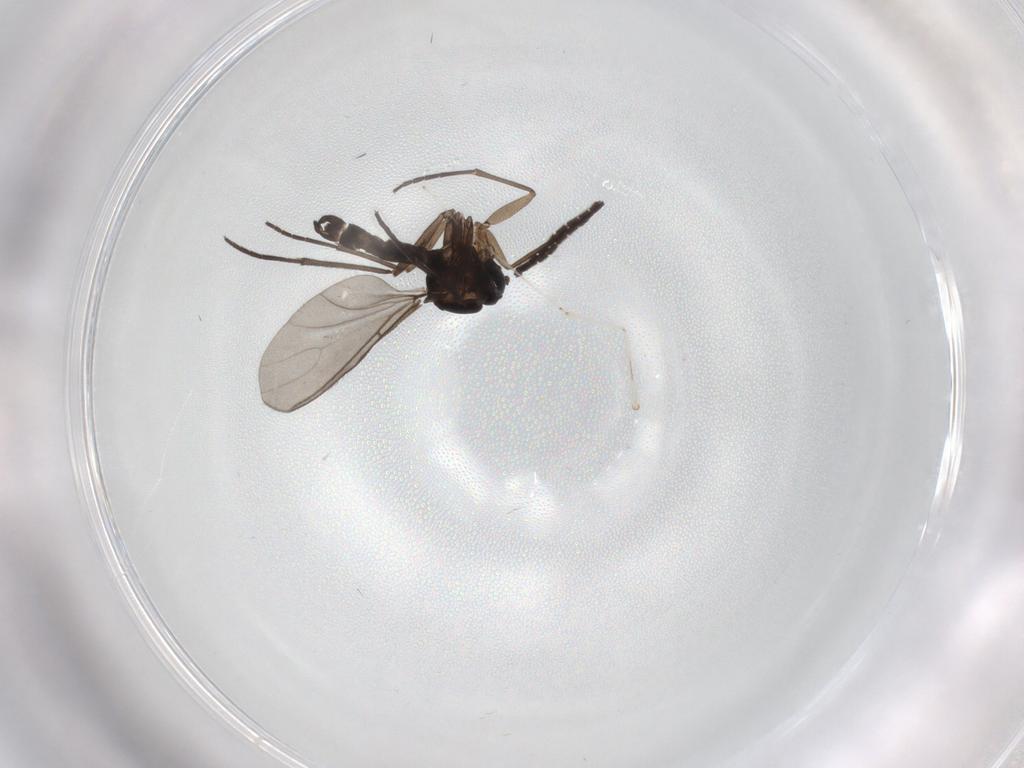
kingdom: Animalia
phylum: Arthropoda
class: Insecta
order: Diptera
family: Sciaridae
